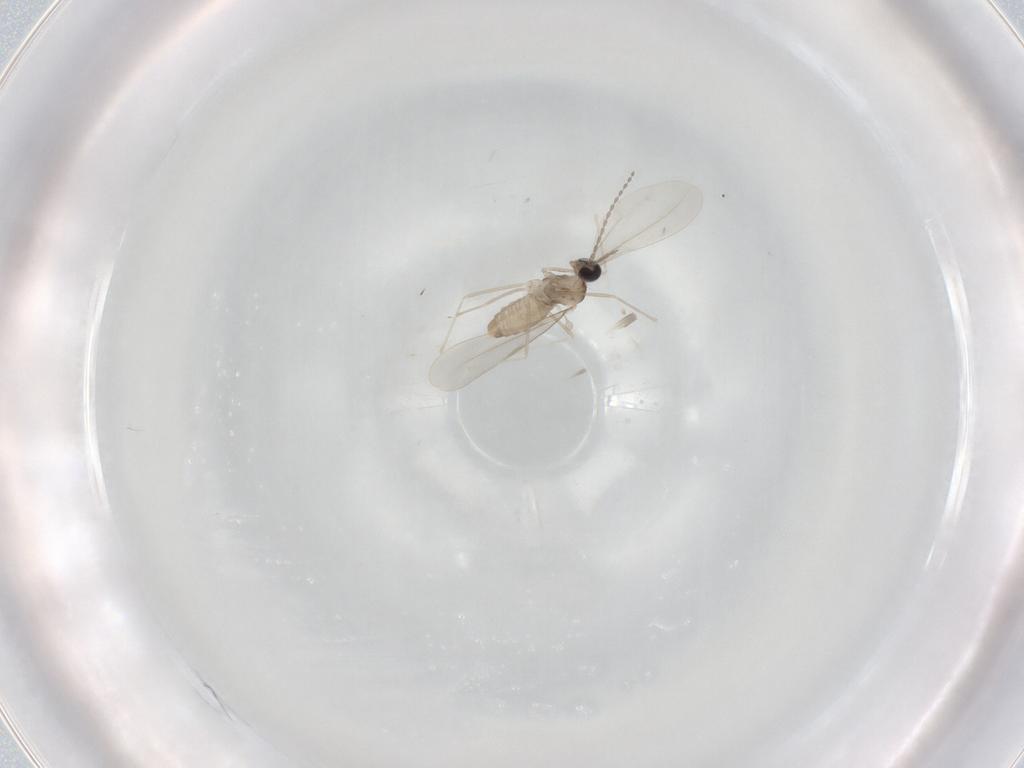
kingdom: Animalia
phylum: Arthropoda
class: Insecta
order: Diptera
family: Cecidomyiidae
